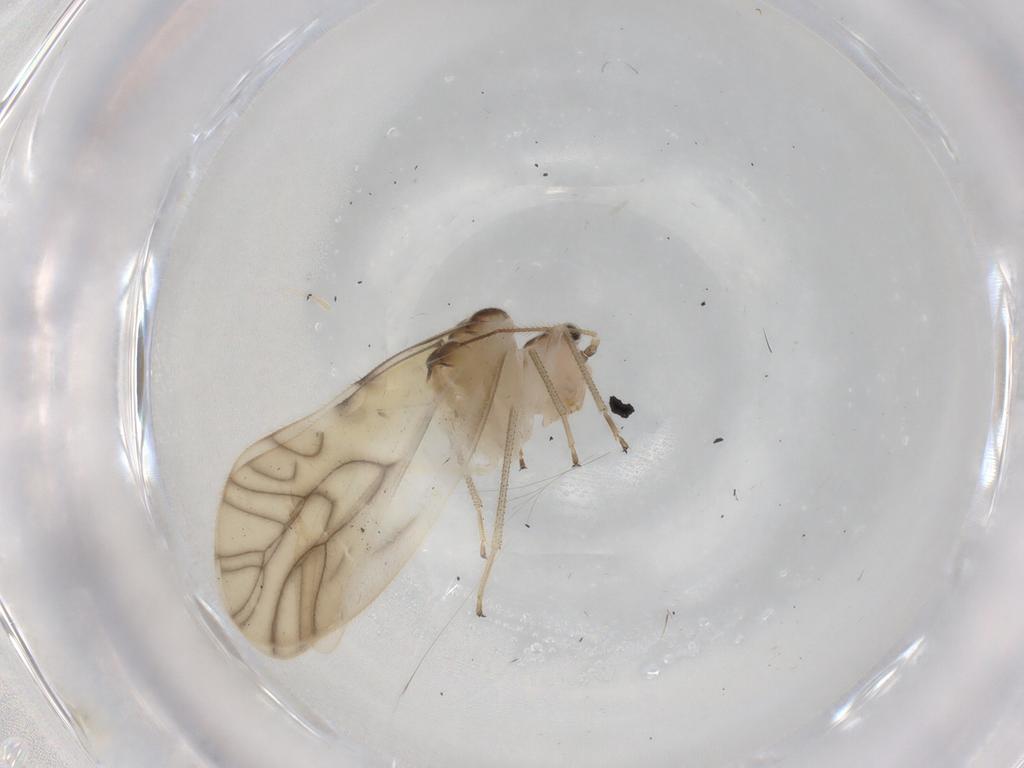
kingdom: Animalia
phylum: Arthropoda
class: Insecta
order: Psocodea
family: Caeciliusidae
